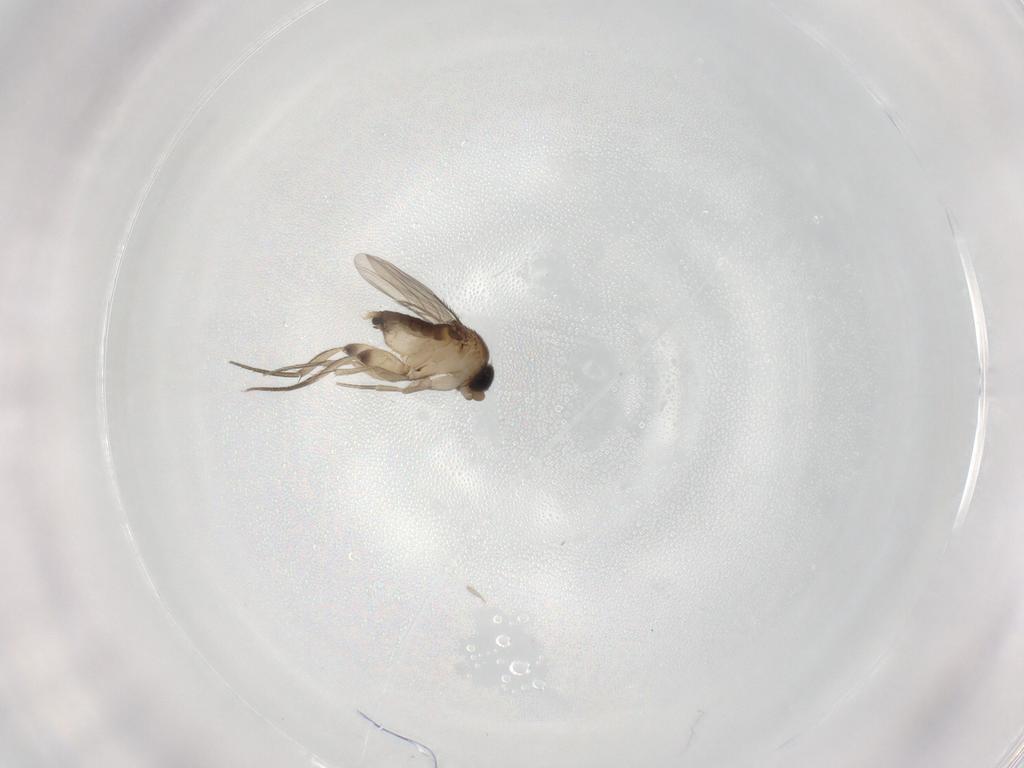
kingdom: Animalia
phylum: Arthropoda
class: Insecta
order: Diptera
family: Phoridae
